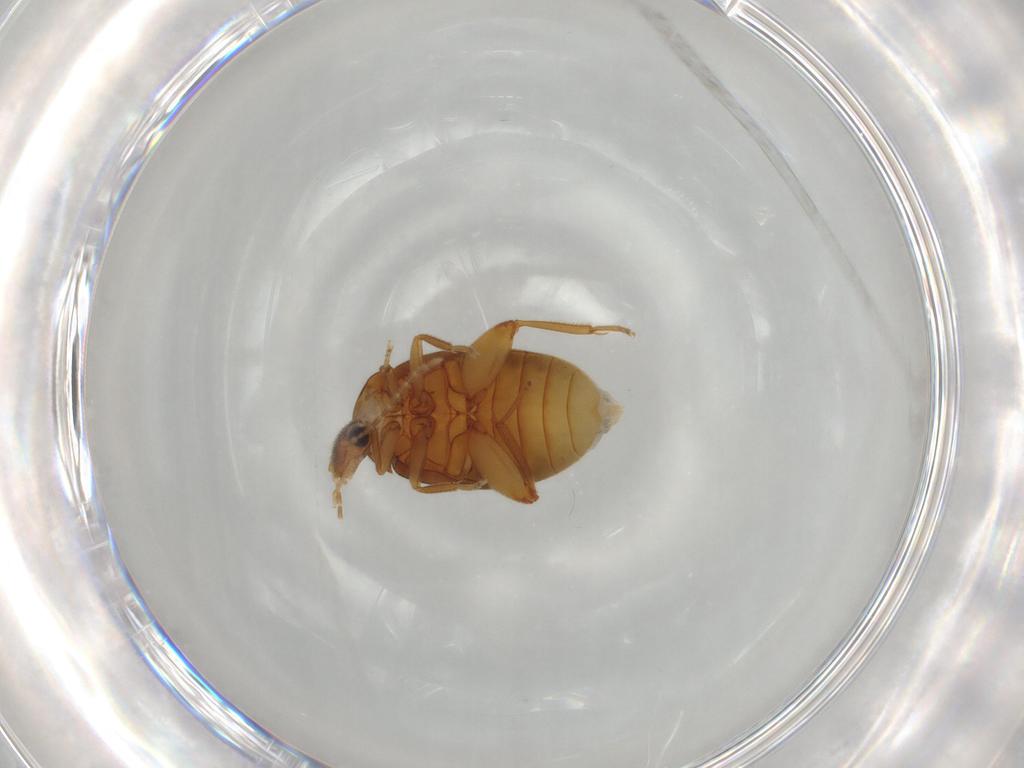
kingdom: Animalia
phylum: Arthropoda
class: Insecta
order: Coleoptera
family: Scirtidae
